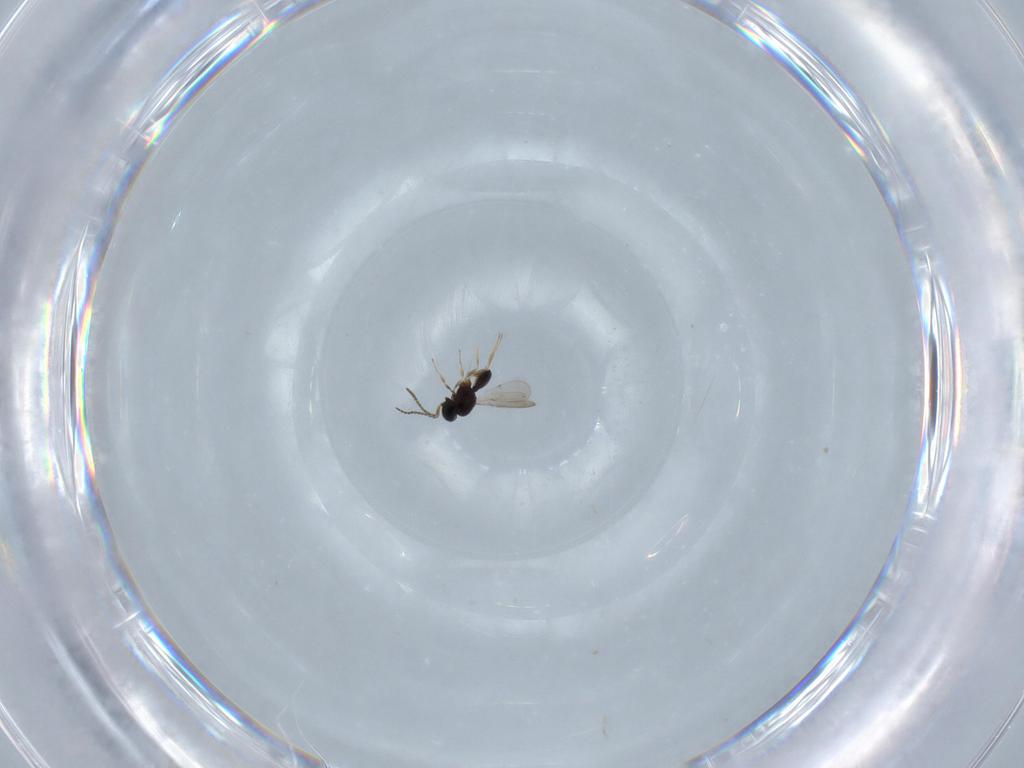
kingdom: Animalia
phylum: Arthropoda
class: Insecta
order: Hymenoptera
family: Scelionidae
